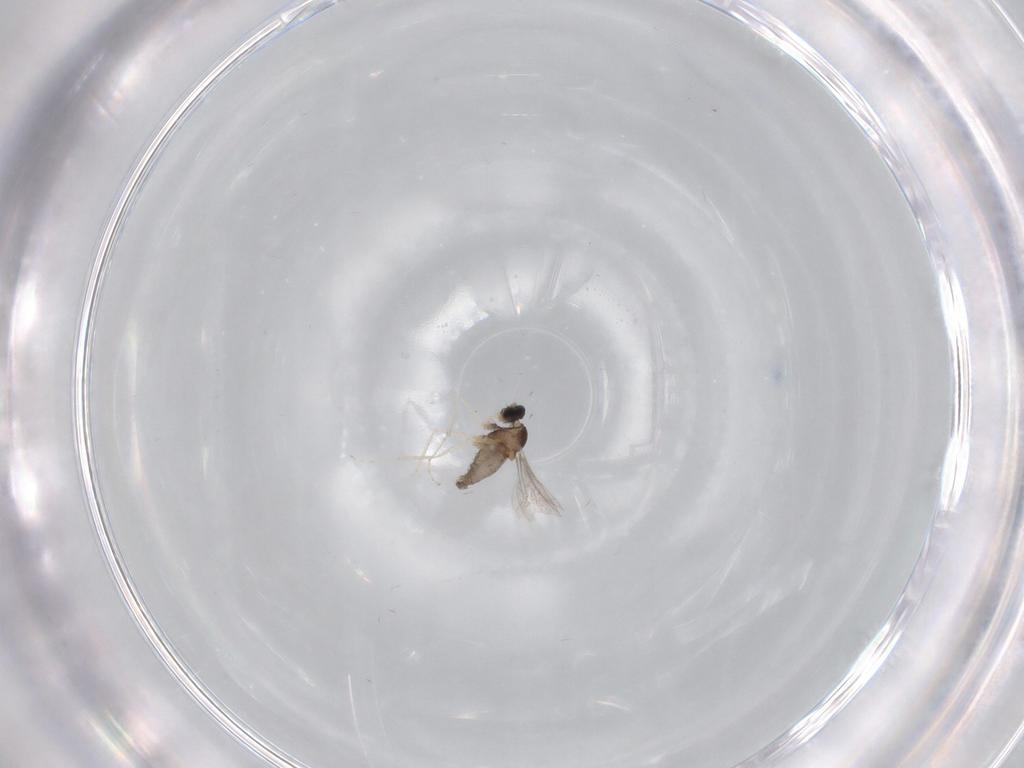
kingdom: Animalia
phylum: Arthropoda
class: Insecta
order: Diptera
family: Cecidomyiidae
